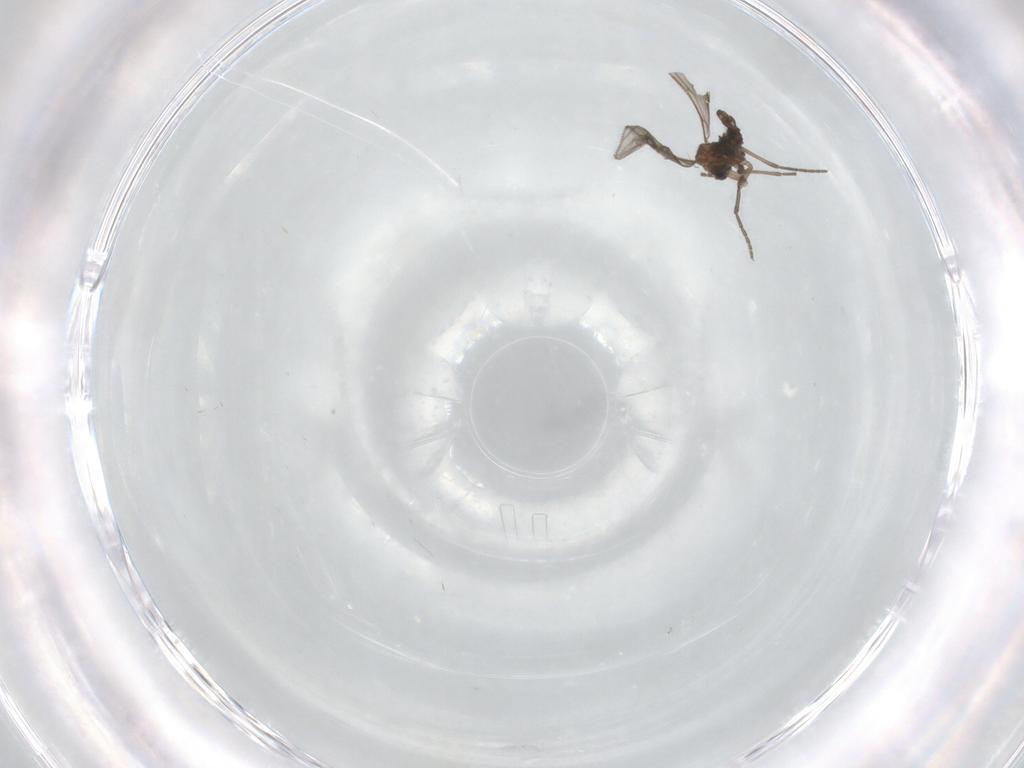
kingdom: Animalia
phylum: Arthropoda
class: Insecta
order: Diptera
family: Sciaridae
